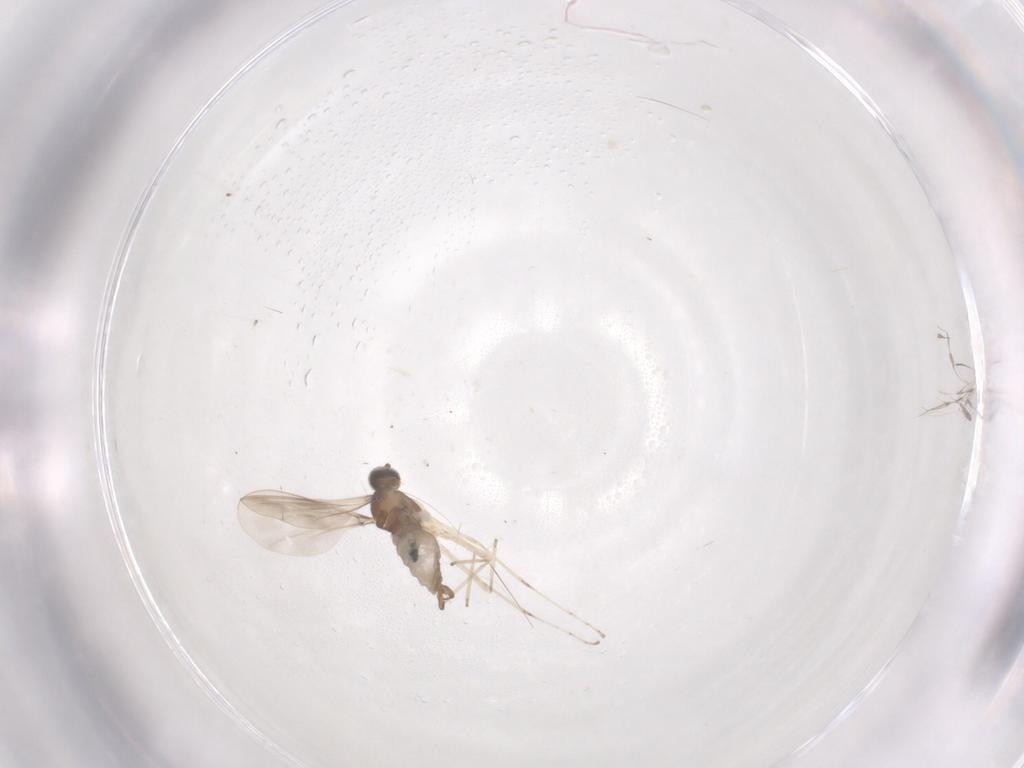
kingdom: Animalia
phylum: Arthropoda
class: Insecta
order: Diptera
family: Cecidomyiidae
